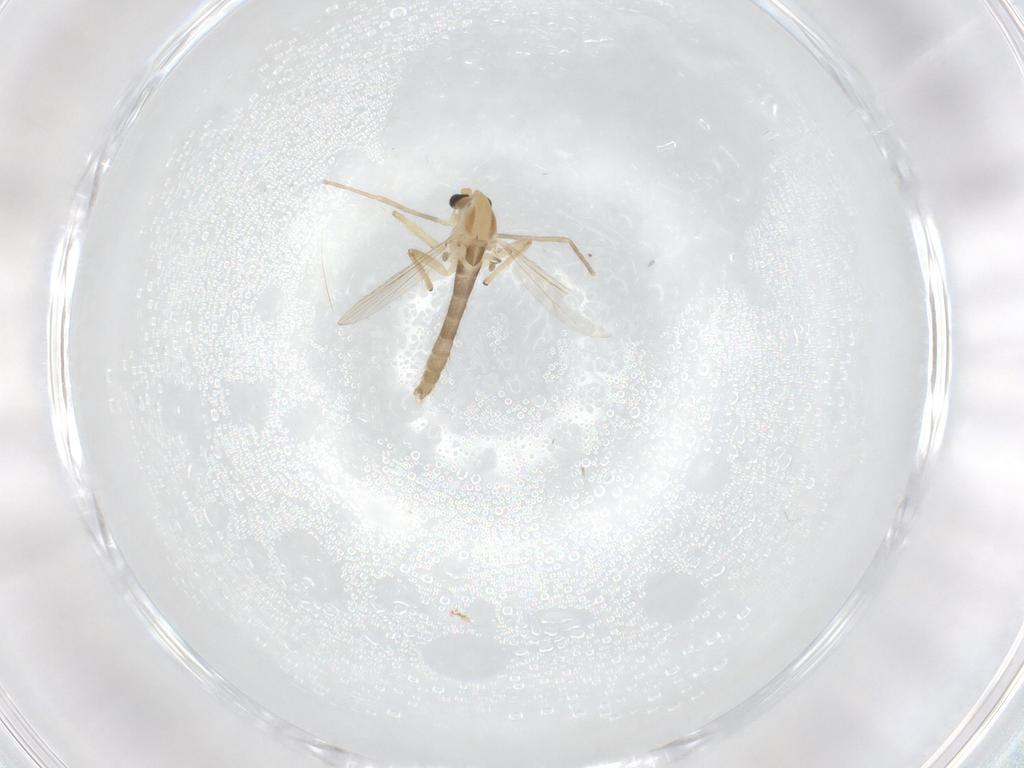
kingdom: Animalia
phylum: Arthropoda
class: Insecta
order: Diptera
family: Chironomidae
